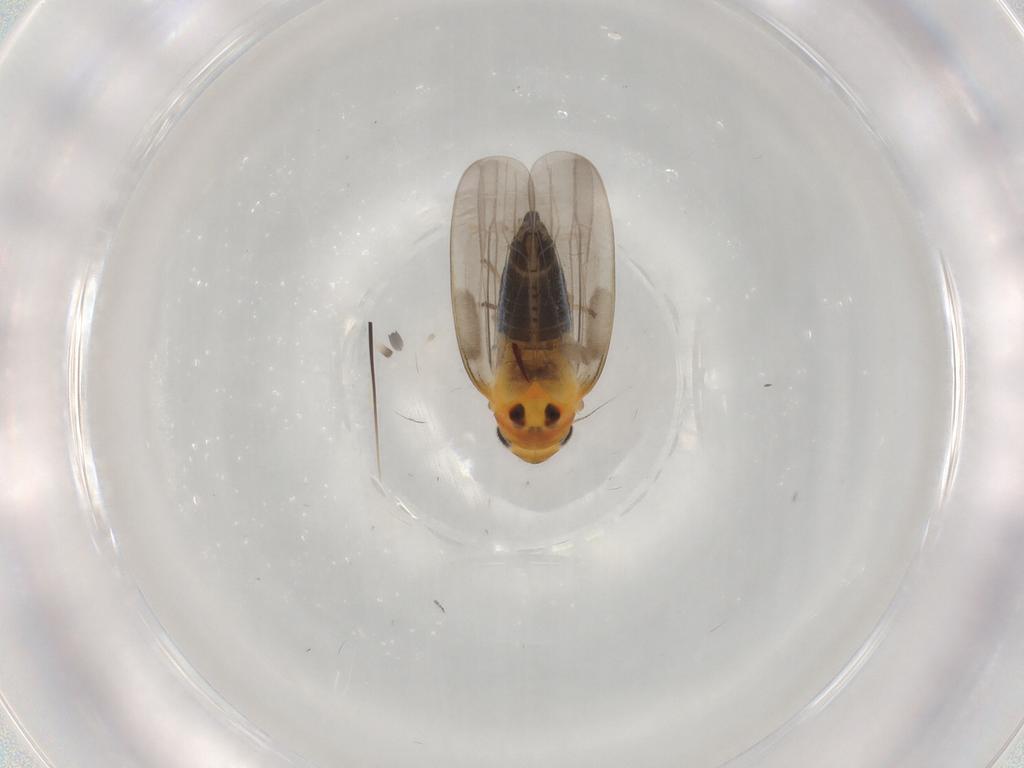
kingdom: Animalia
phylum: Arthropoda
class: Insecta
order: Hemiptera
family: Cicadellidae
